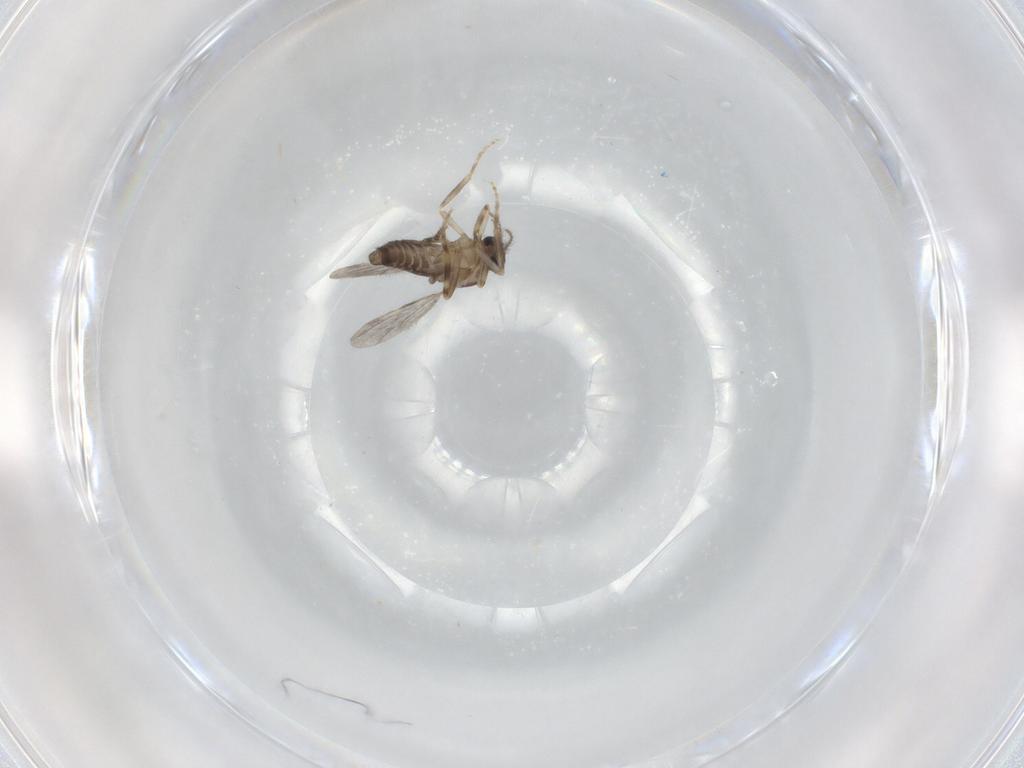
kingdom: Animalia
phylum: Arthropoda
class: Insecta
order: Diptera
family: Ceratopogonidae
